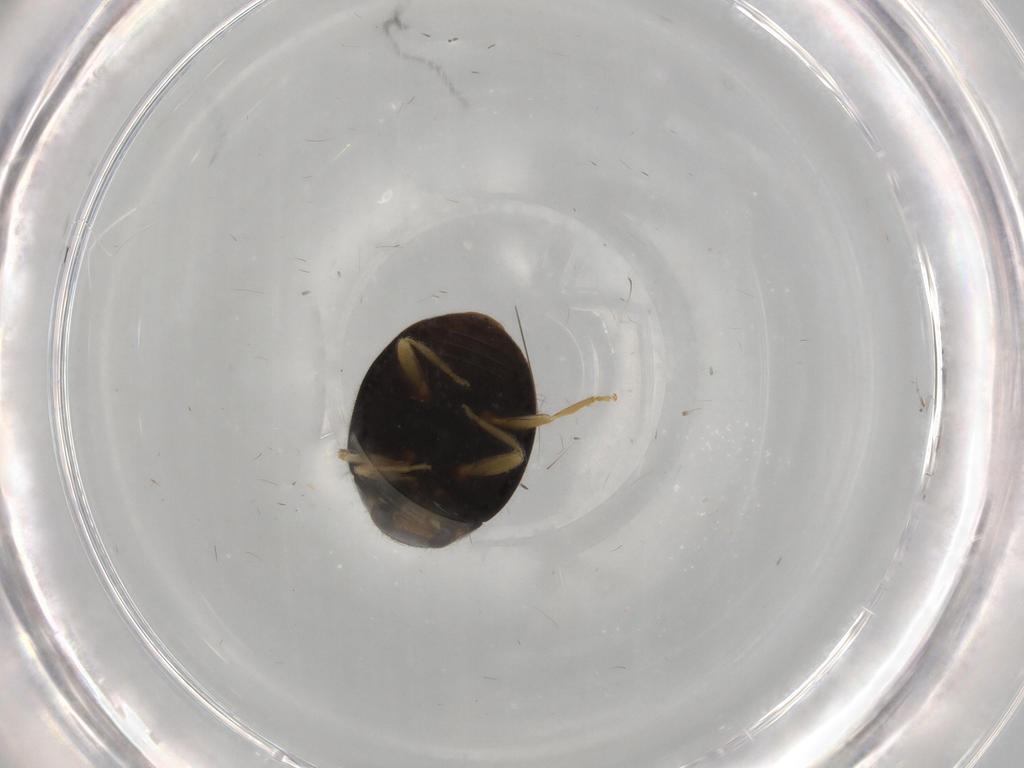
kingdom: Animalia
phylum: Arthropoda
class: Insecta
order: Coleoptera
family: Coccinellidae
